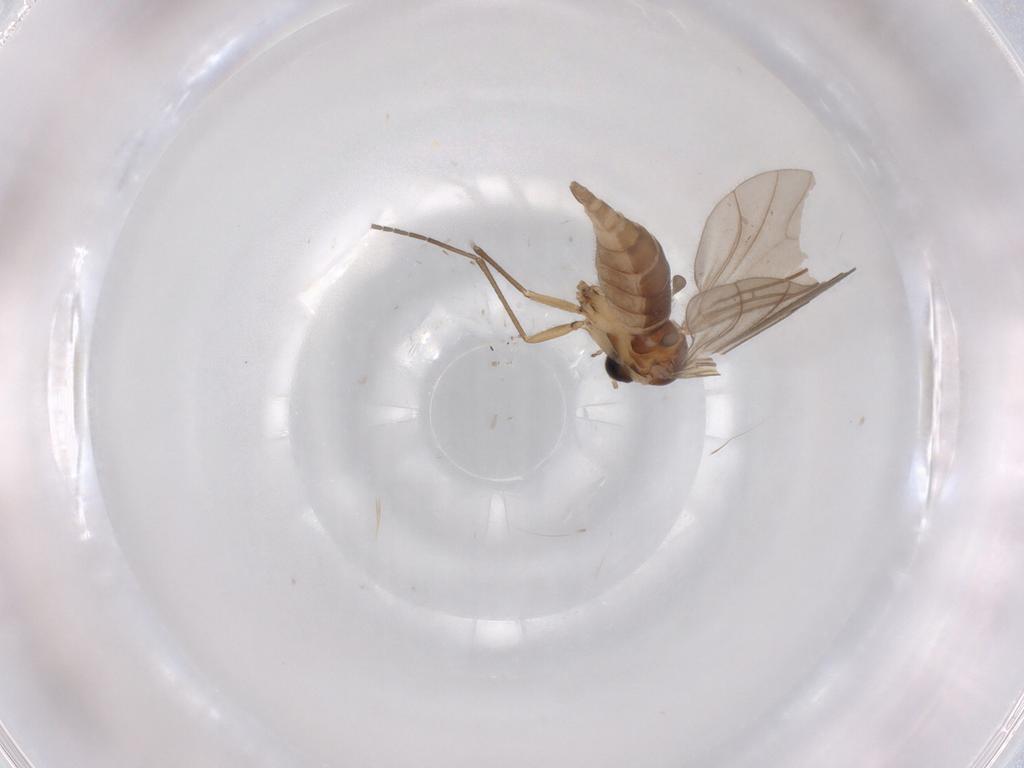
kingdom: Animalia
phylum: Arthropoda
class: Insecta
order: Diptera
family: Sciaridae
